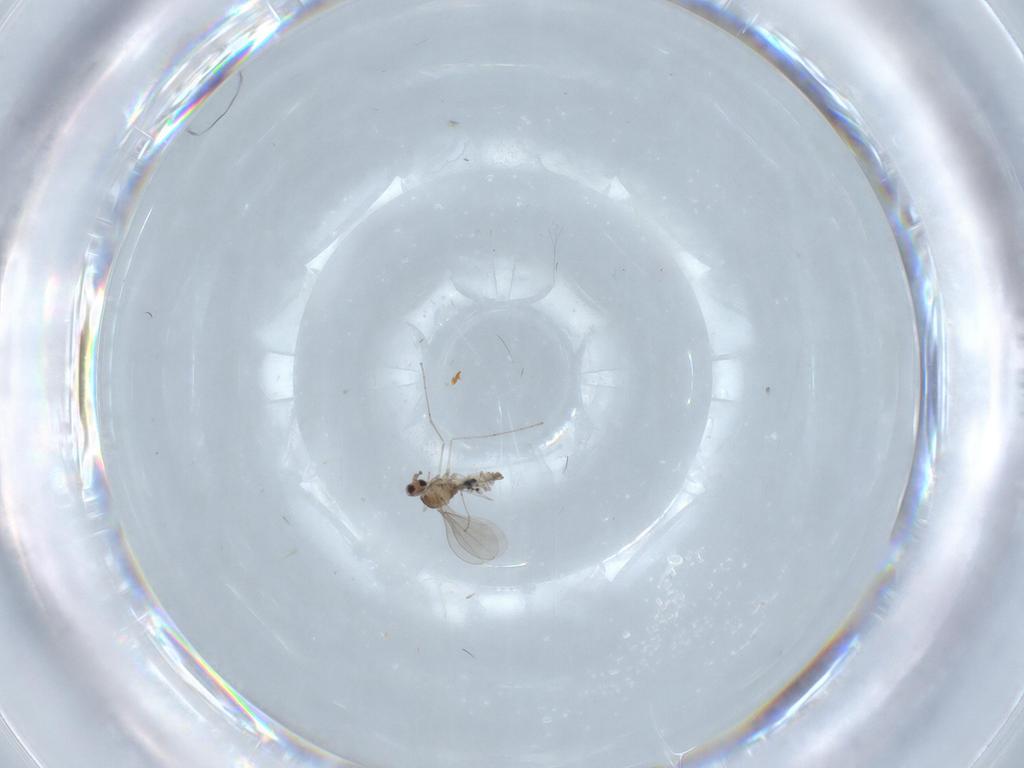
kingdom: Animalia
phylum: Arthropoda
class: Insecta
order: Diptera
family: Cecidomyiidae
